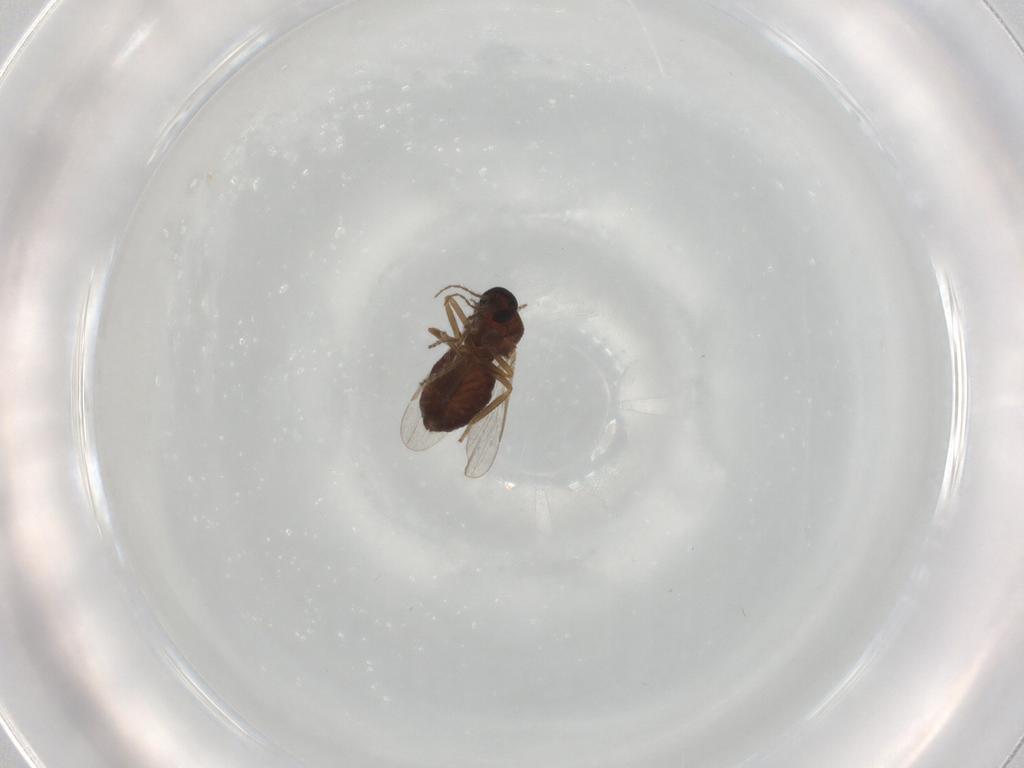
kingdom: Animalia
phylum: Arthropoda
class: Insecta
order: Diptera
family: Ceratopogonidae
